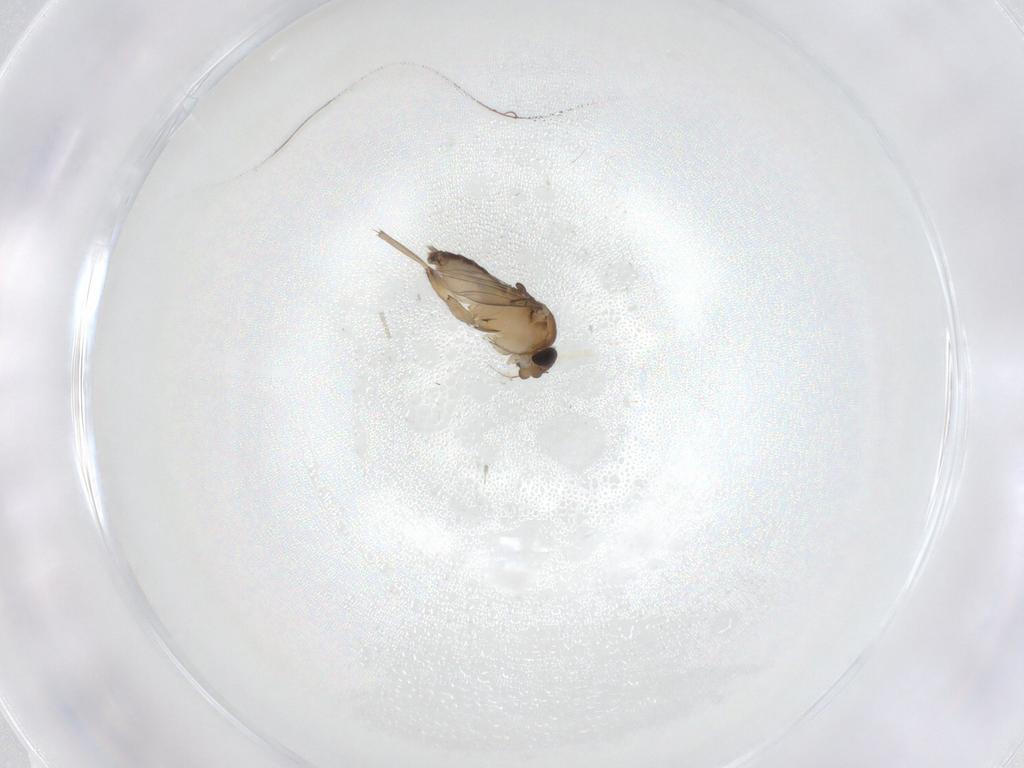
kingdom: Animalia
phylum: Arthropoda
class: Insecta
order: Diptera
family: Phoridae
